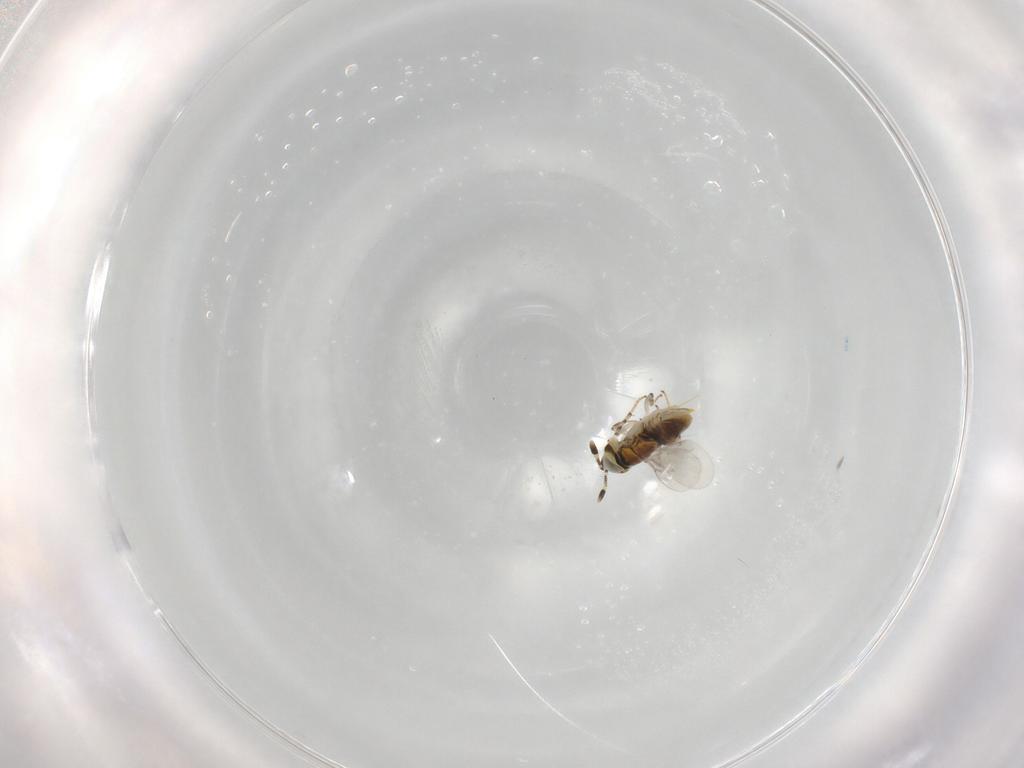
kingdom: Animalia
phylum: Arthropoda
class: Insecta
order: Hymenoptera
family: Encyrtidae
